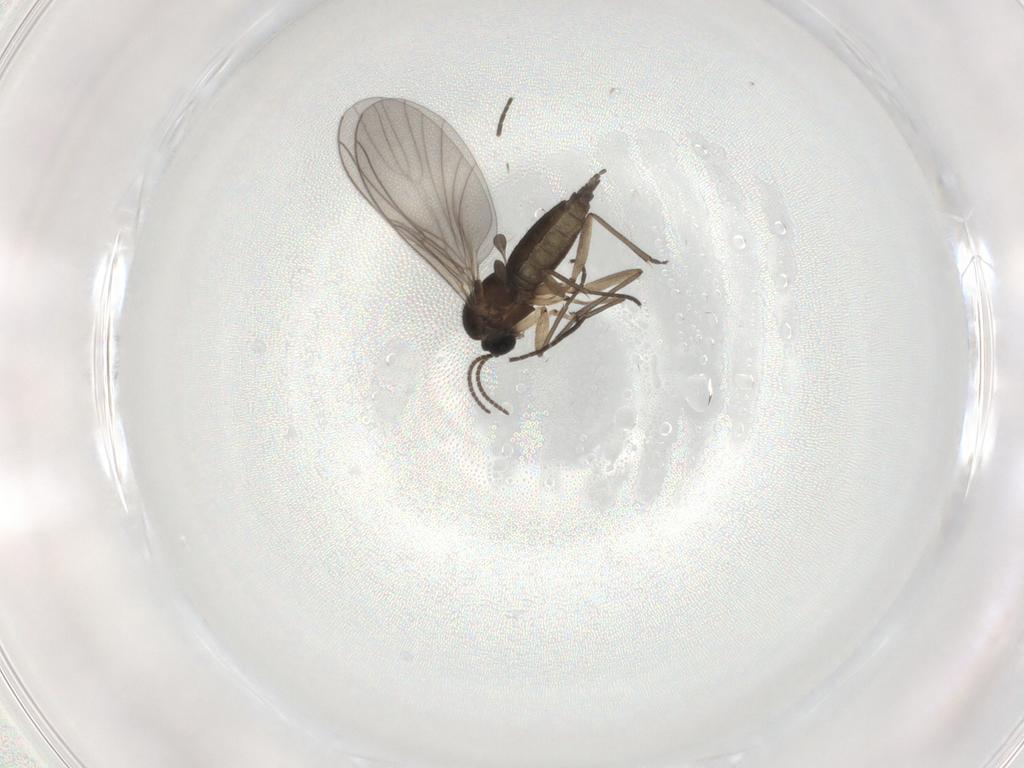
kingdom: Animalia
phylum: Arthropoda
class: Insecta
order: Diptera
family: Sciaridae
